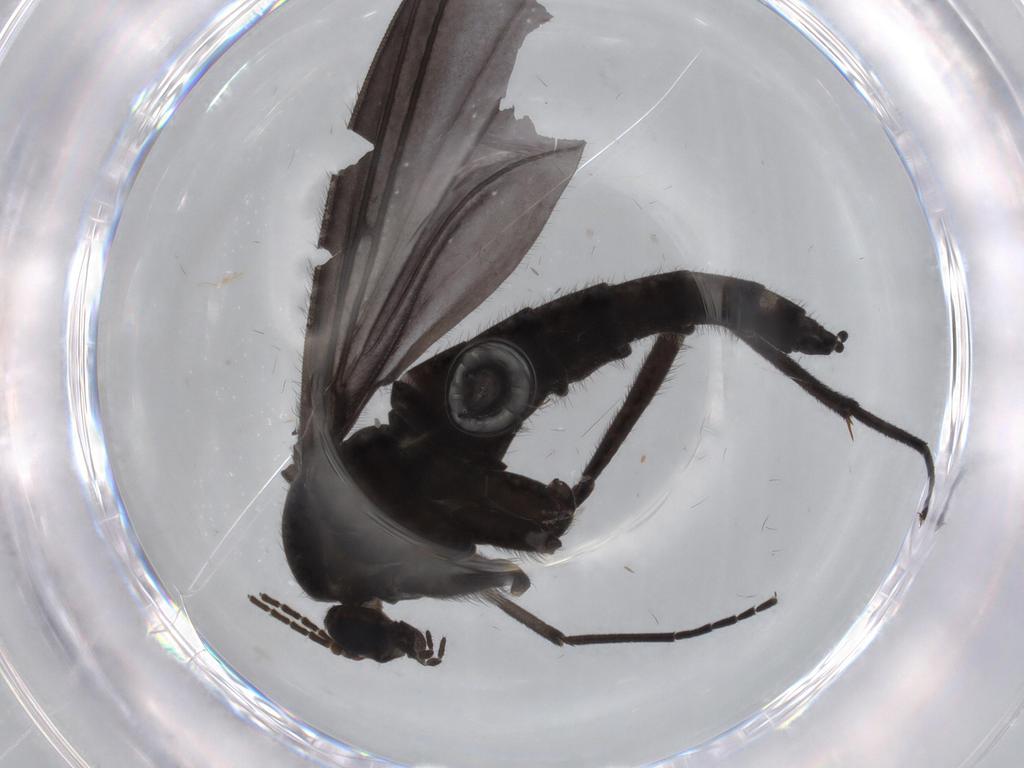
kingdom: Animalia
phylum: Arthropoda
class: Insecta
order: Diptera
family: Sciaridae
